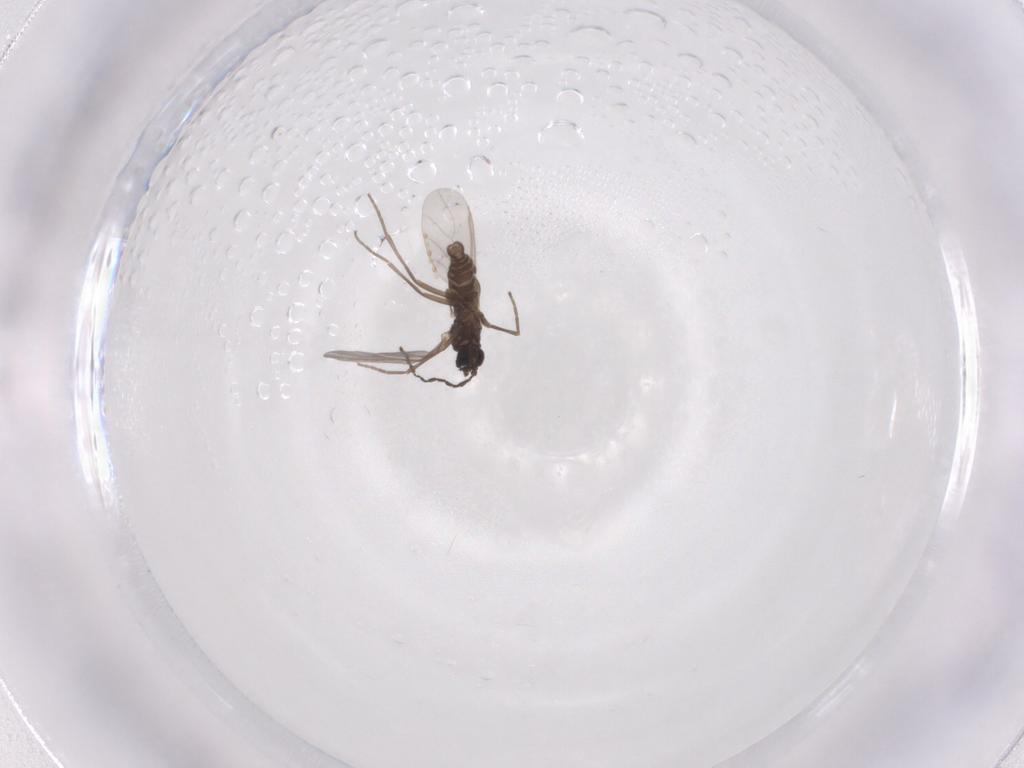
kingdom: Animalia
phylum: Arthropoda
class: Insecta
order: Diptera
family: Sciaridae
